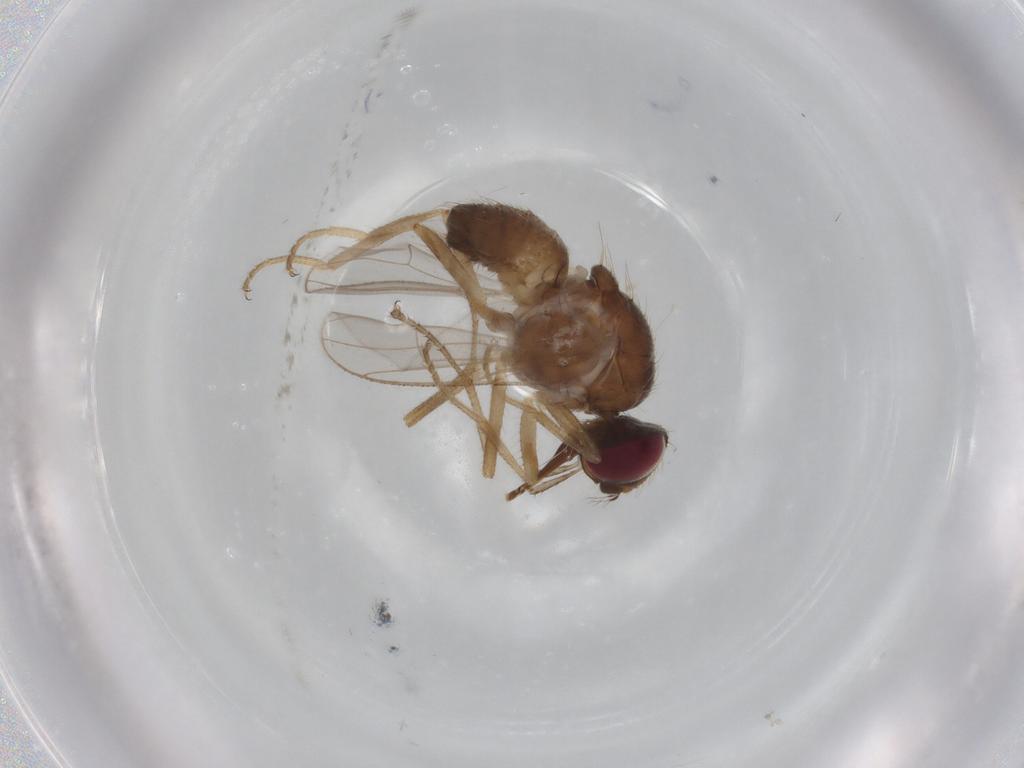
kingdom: Animalia
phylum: Arthropoda
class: Insecta
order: Diptera
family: Muscidae
